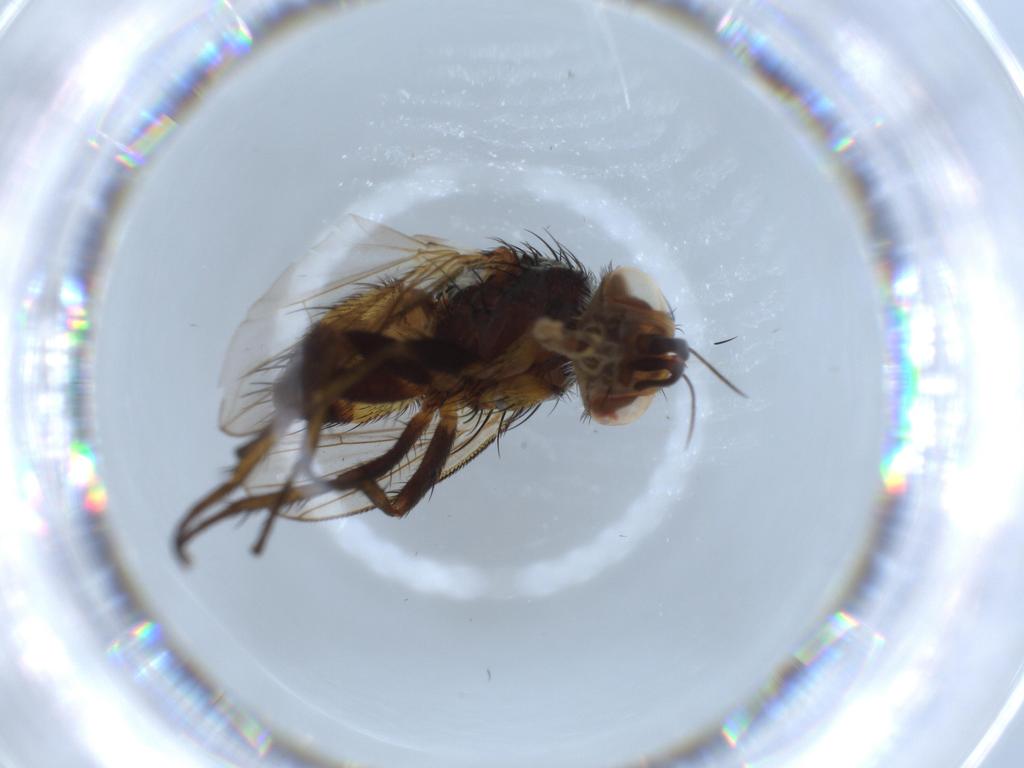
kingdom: Animalia
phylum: Arthropoda
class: Insecta
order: Diptera
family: Tachinidae
